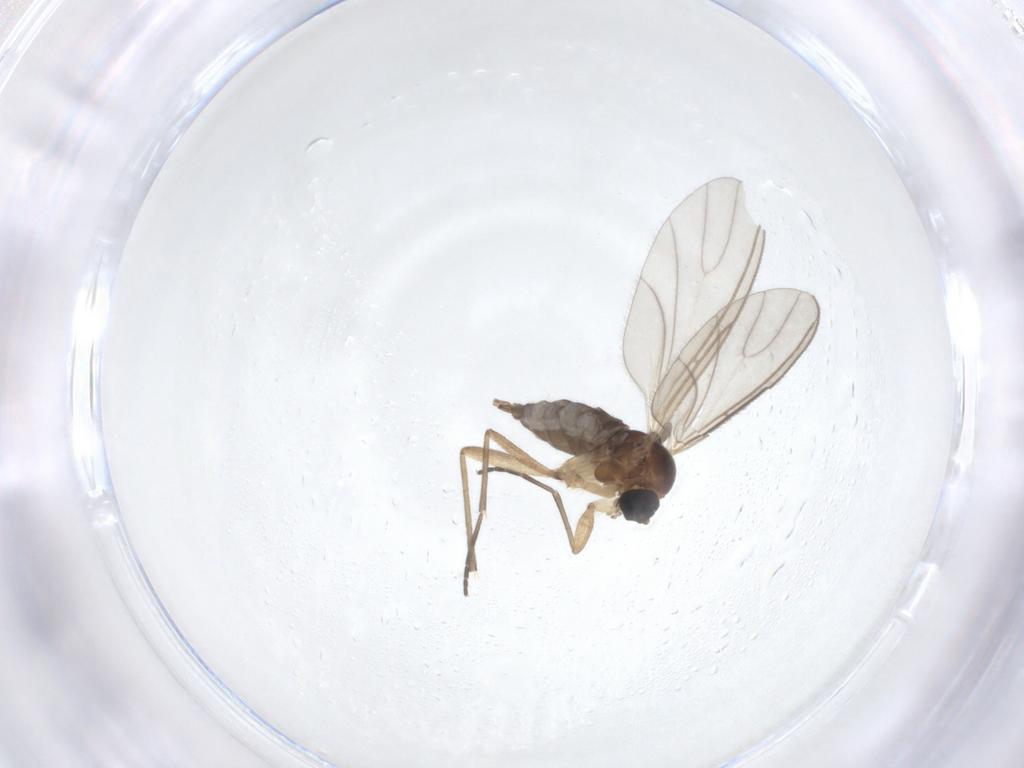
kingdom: Animalia
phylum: Arthropoda
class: Insecta
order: Diptera
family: Sciaridae
